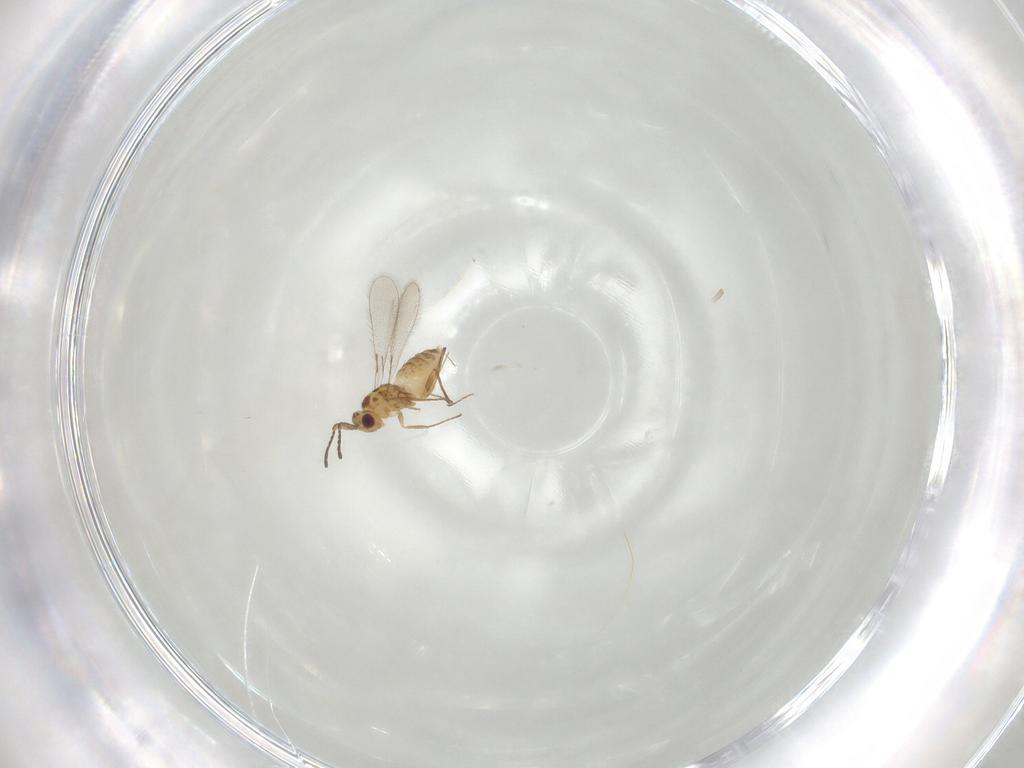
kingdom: Animalia
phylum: Arthropoda
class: Insecta
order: Hymenoptera
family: Mymaridae
